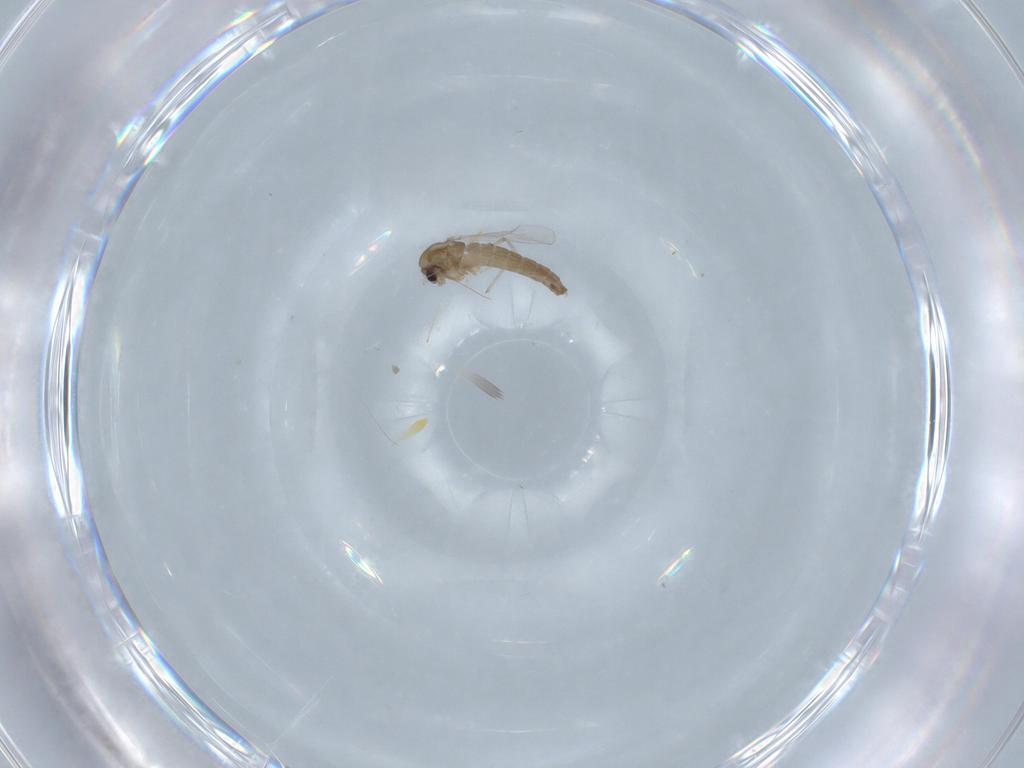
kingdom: Animalia
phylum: Arthropoda
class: Insecta
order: Diptera
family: Chironomidae
